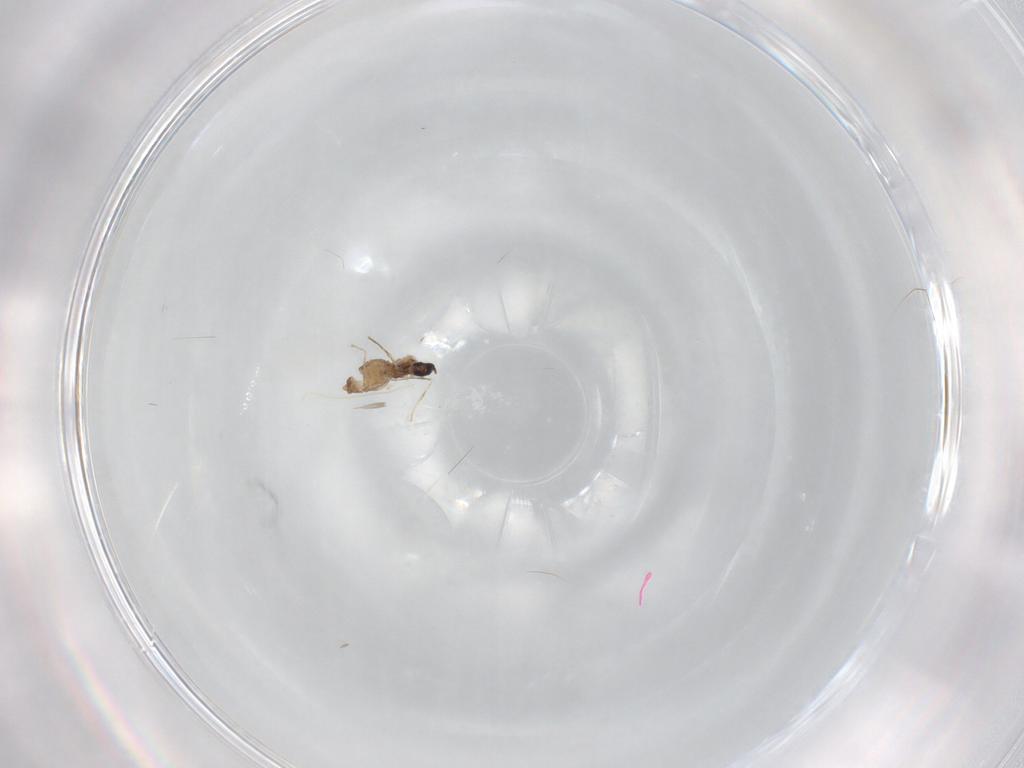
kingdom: Animalia
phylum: Arthropoda
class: Insecta
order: Diptera
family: Cecidomyiidae
